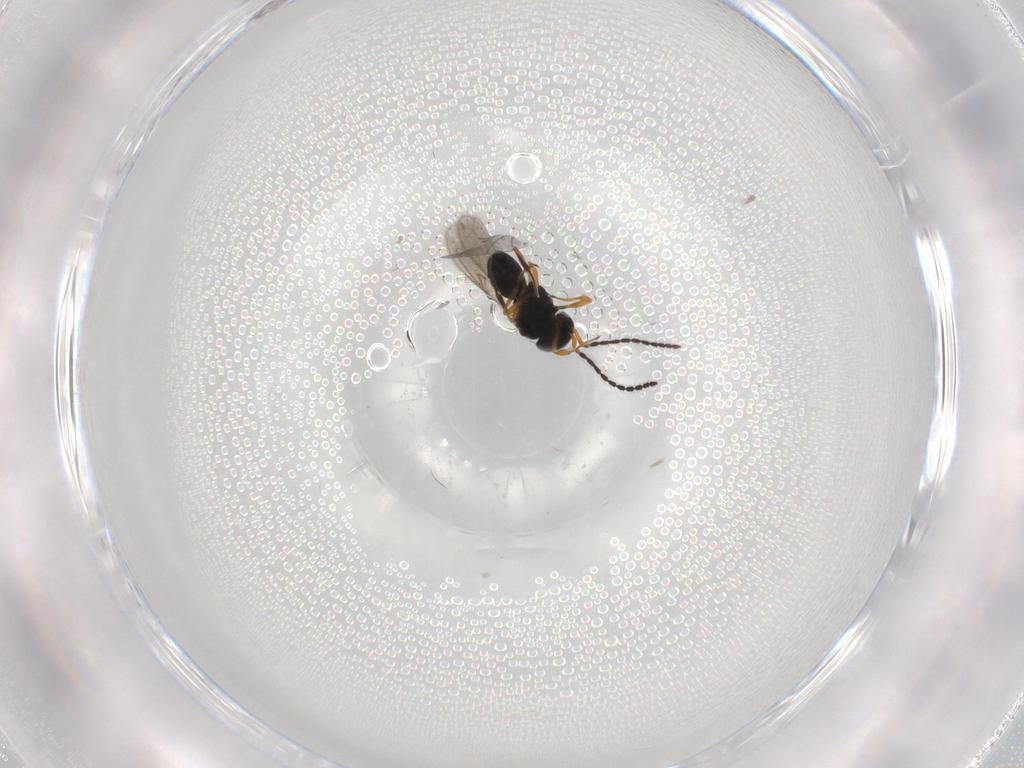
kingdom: Animalia
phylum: Arthropoda
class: Insecta
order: Hymenoptera
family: Scelionidae
